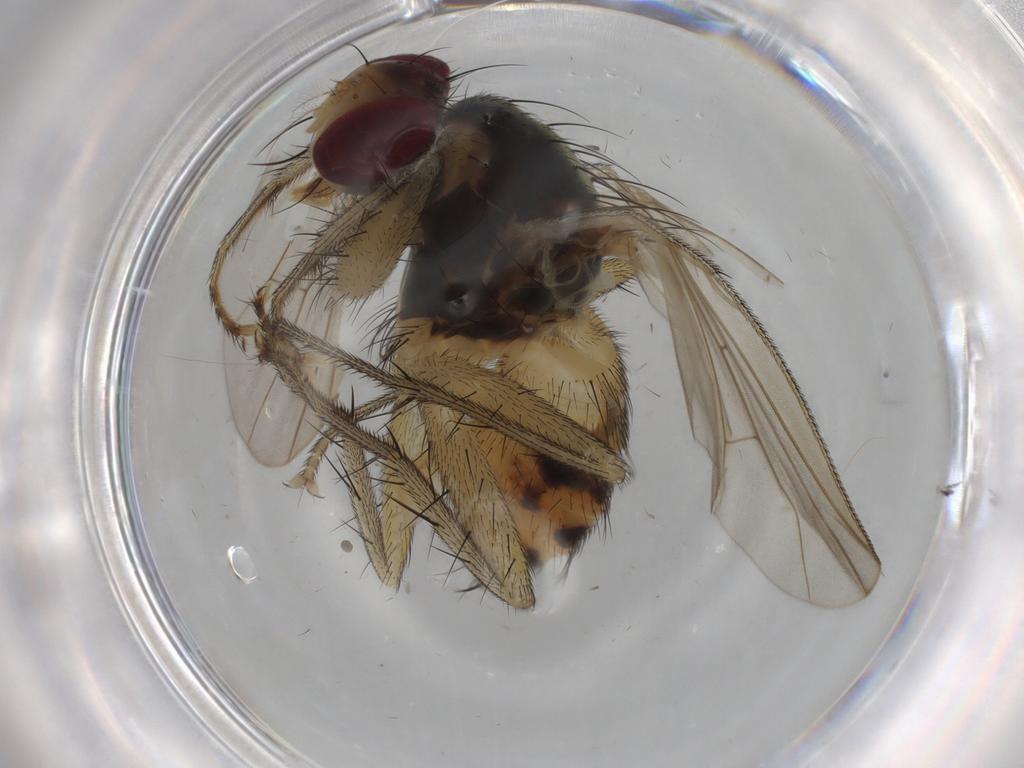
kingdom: Animalia
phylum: Arthropoda
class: Insecta
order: Diptera
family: Muscidae
